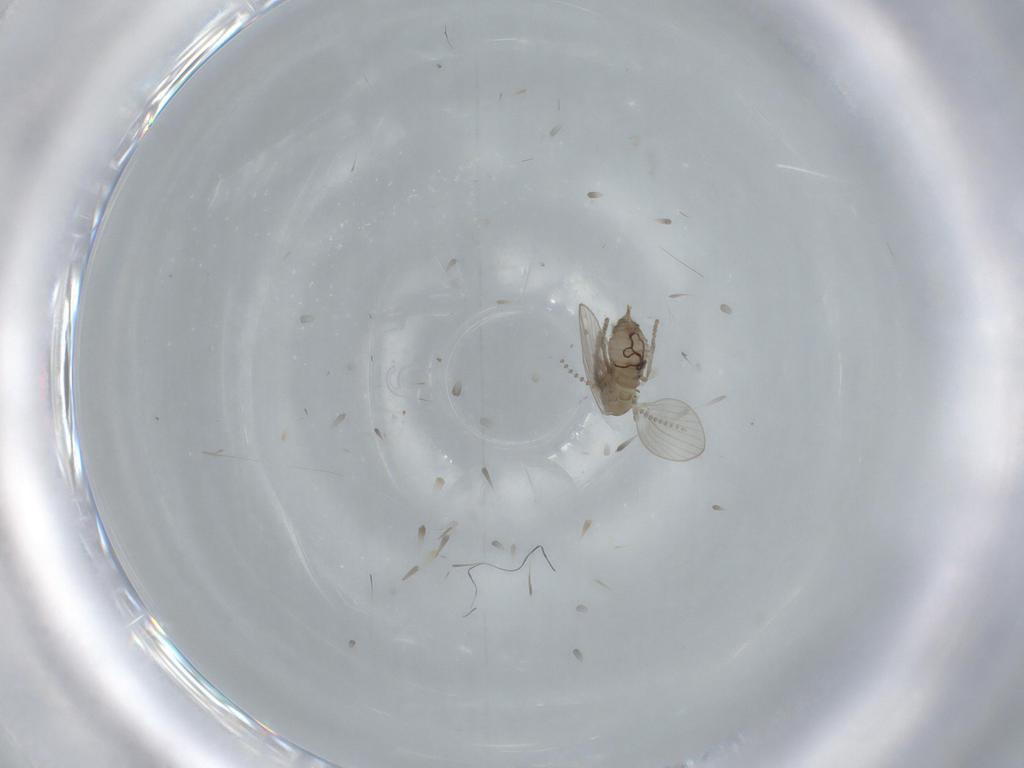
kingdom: Animalia
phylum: Arthropoda
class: Insecta
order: Diptera
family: Psychodidae
